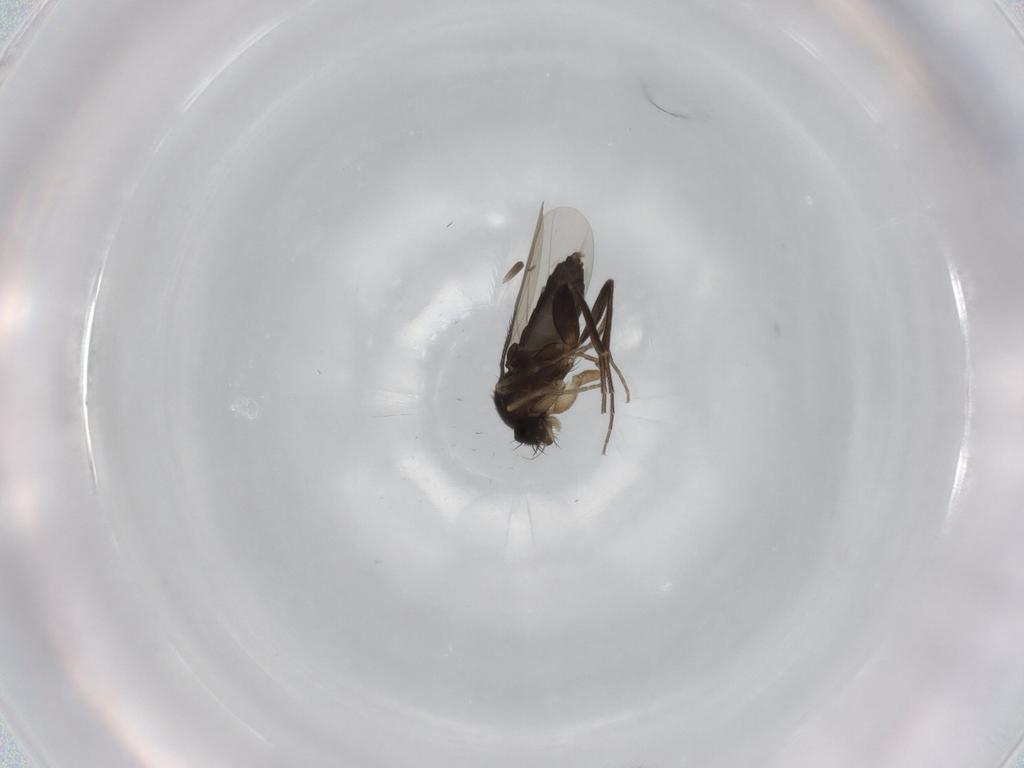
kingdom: Animalia
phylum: Arthropoda
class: Insecta
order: Diptera
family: Phoridae
